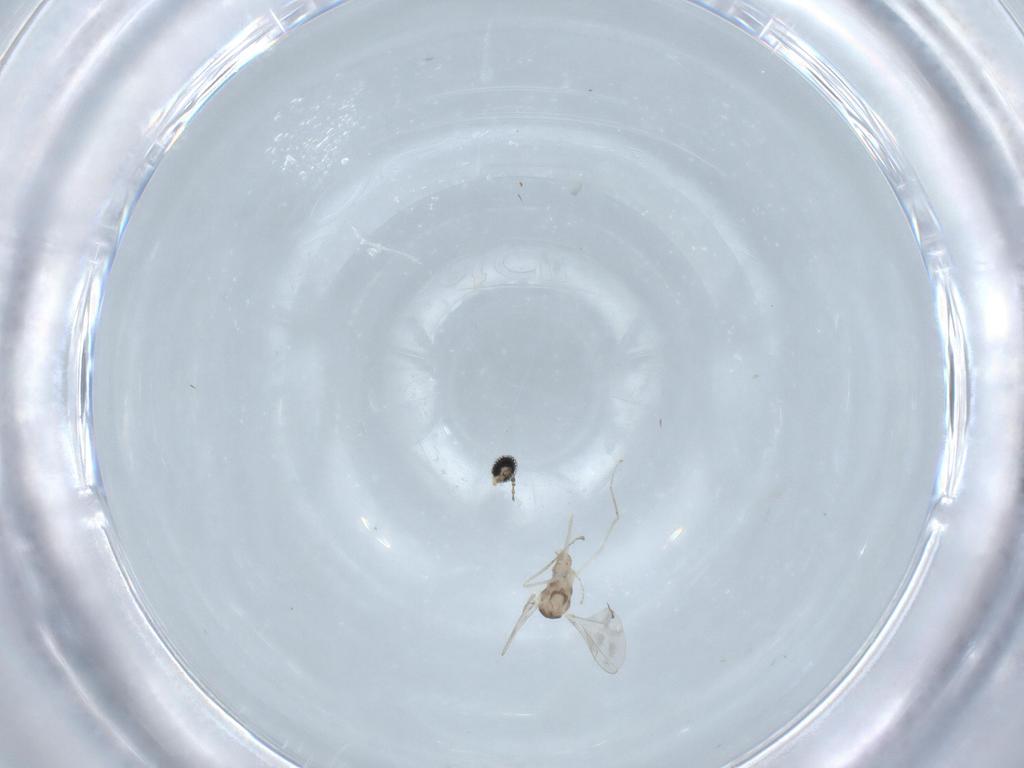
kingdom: Animalia
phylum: Arthropoda
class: Insecta
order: Diptera
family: Cecidomyiidae
